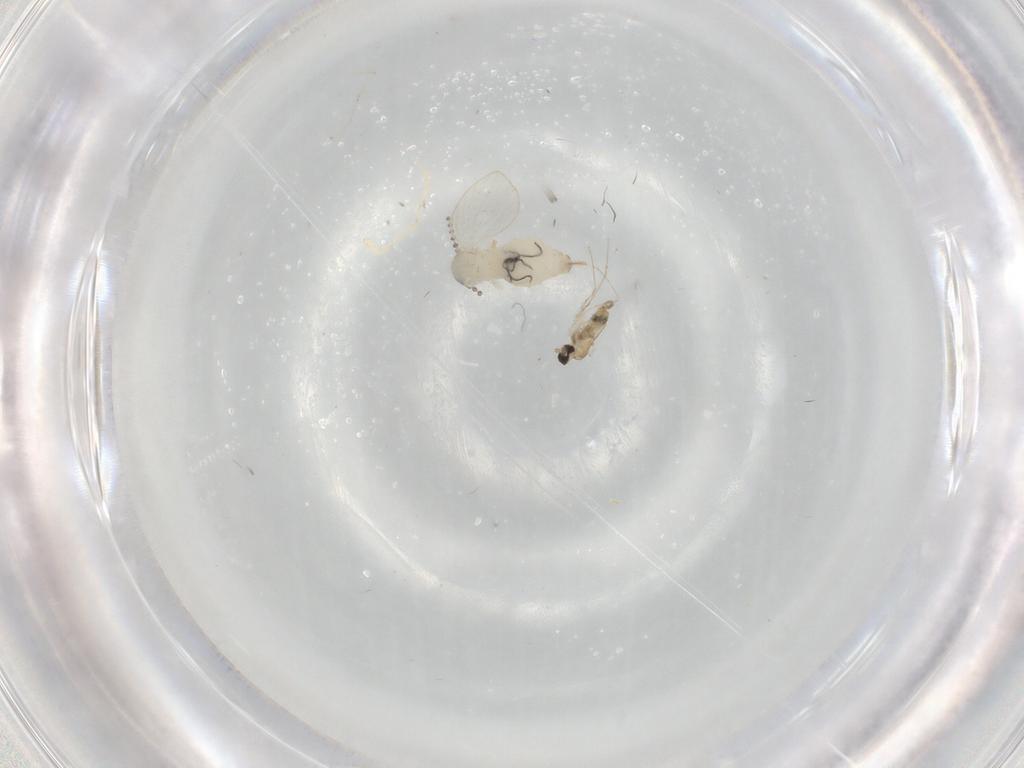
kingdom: Animalia
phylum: Arthropoda
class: Insecta
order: Diptera
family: Psychodidae
